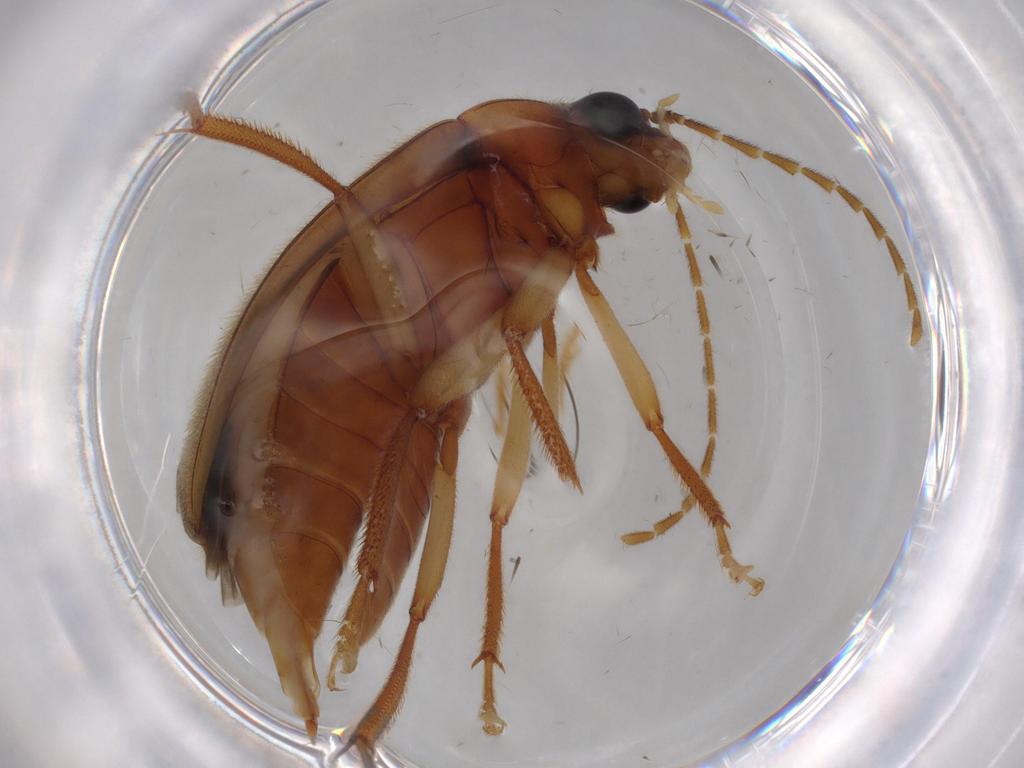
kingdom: Animalia
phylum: Arthropoda
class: Insecta
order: Coleoptera
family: Ptilodactylidae
